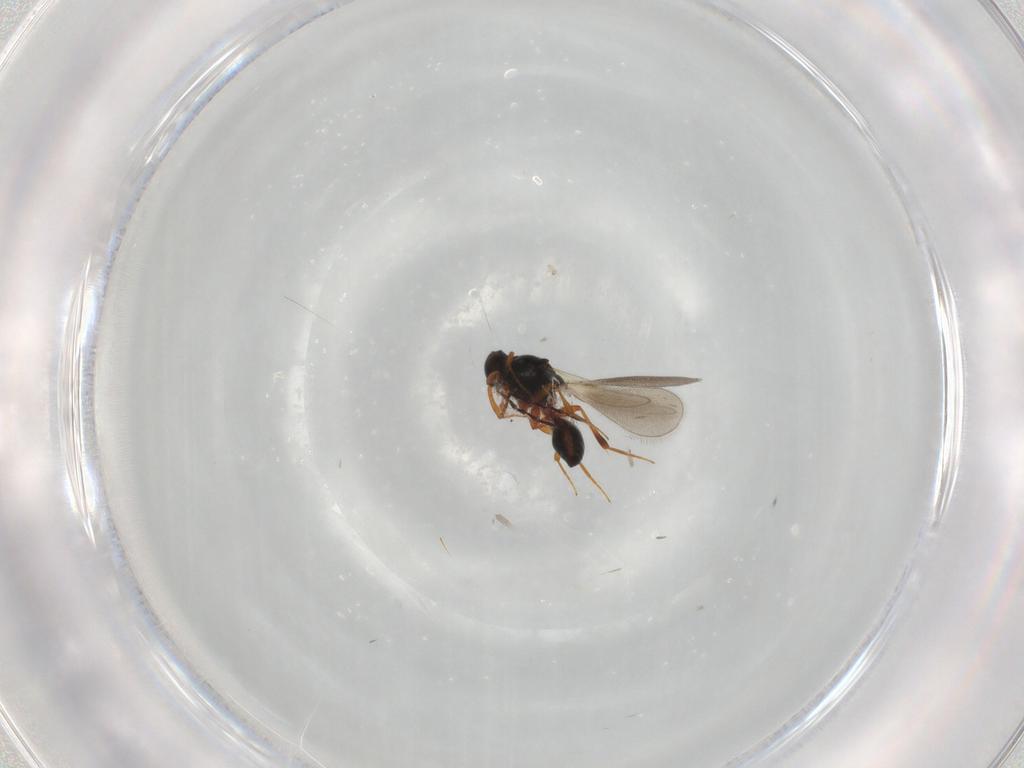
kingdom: Animalia
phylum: Arthropoda
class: Insecta
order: Hymenoptera
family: Platygastridae
